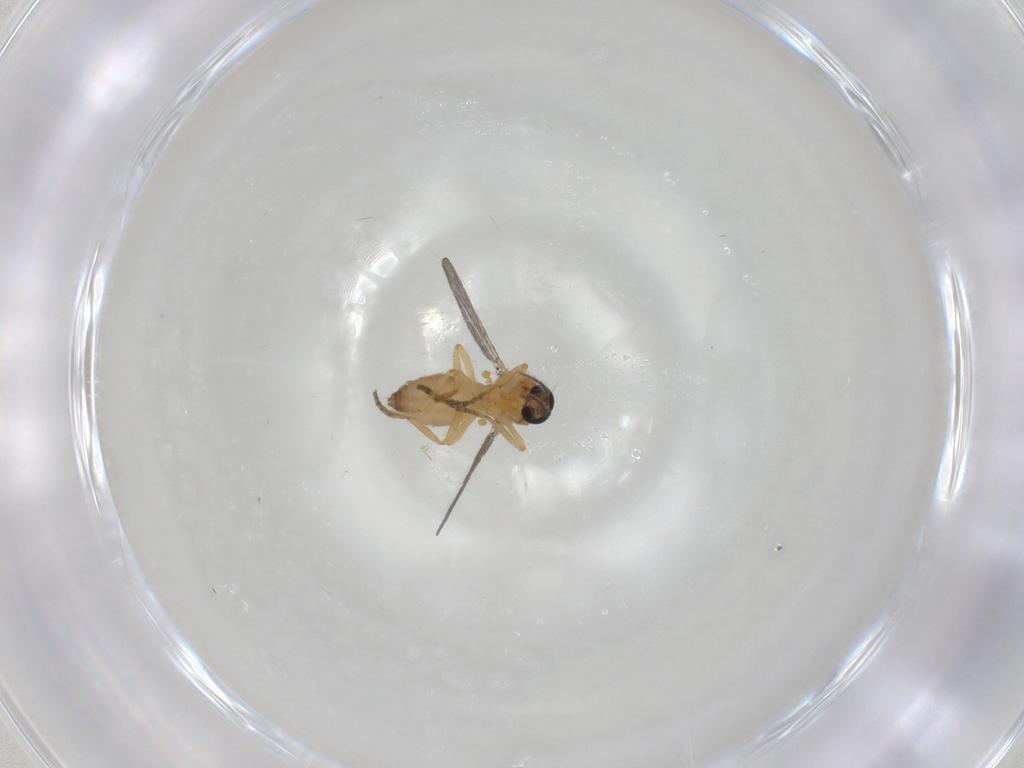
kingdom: Animalia
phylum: Arthropoda
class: Insecta
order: Diptera
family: Ceratopogonidae
